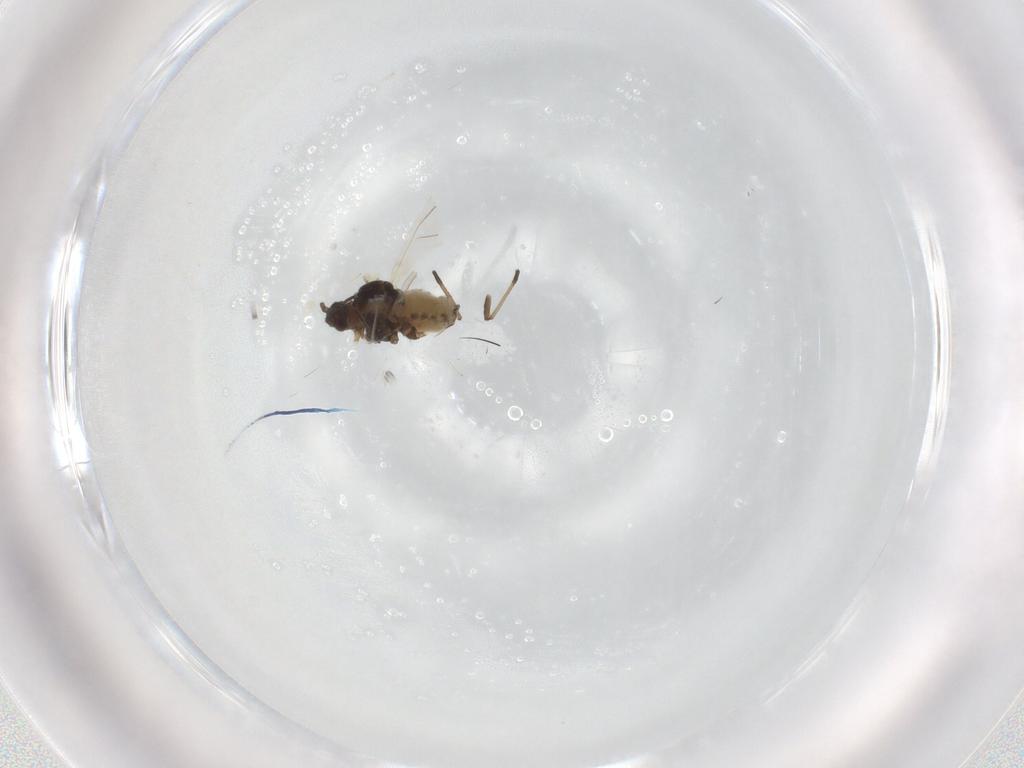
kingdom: Animalia
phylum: Arthropoda
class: Insecta
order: Hemiptera
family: Aphididae
